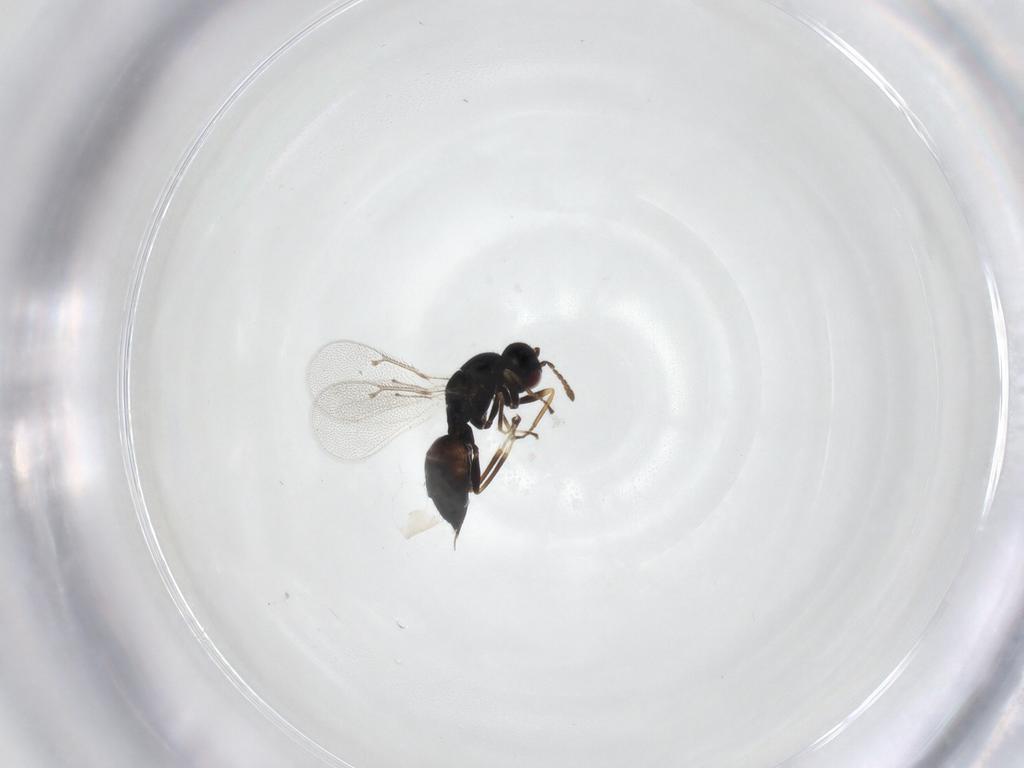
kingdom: Animalia
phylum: Arthropoda
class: Insecta
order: Hymenoptera
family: Eulophidae
